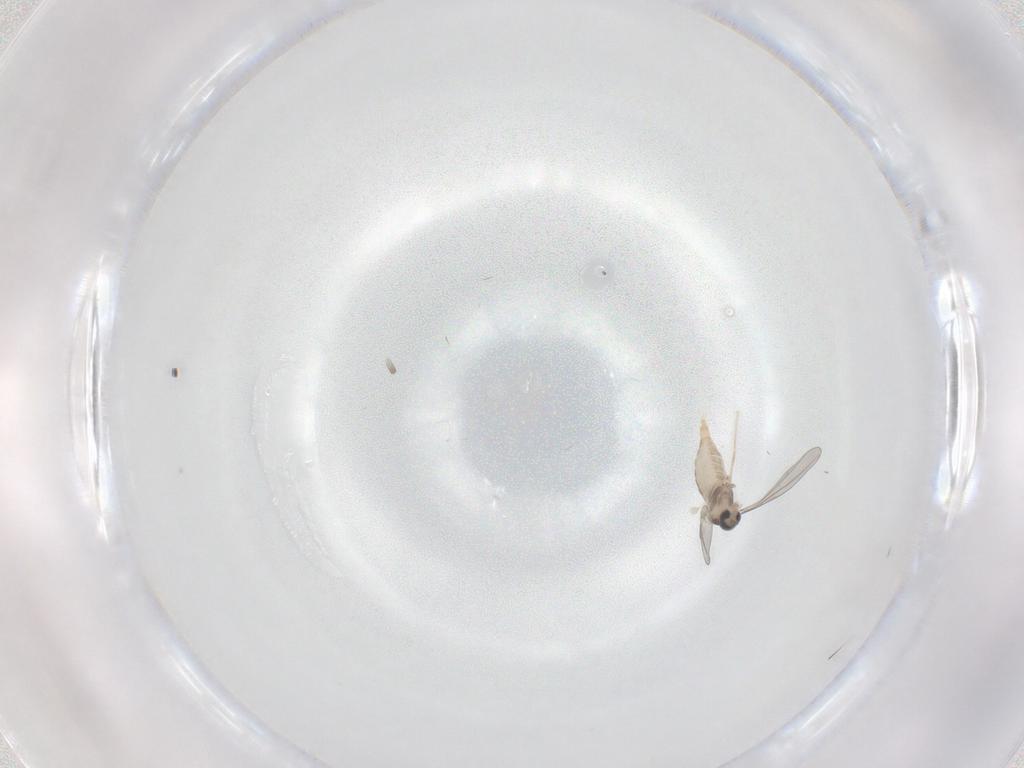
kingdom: Animalia
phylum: Arthropoda
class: Insecta
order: Diptera
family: Cecidomyiidae
